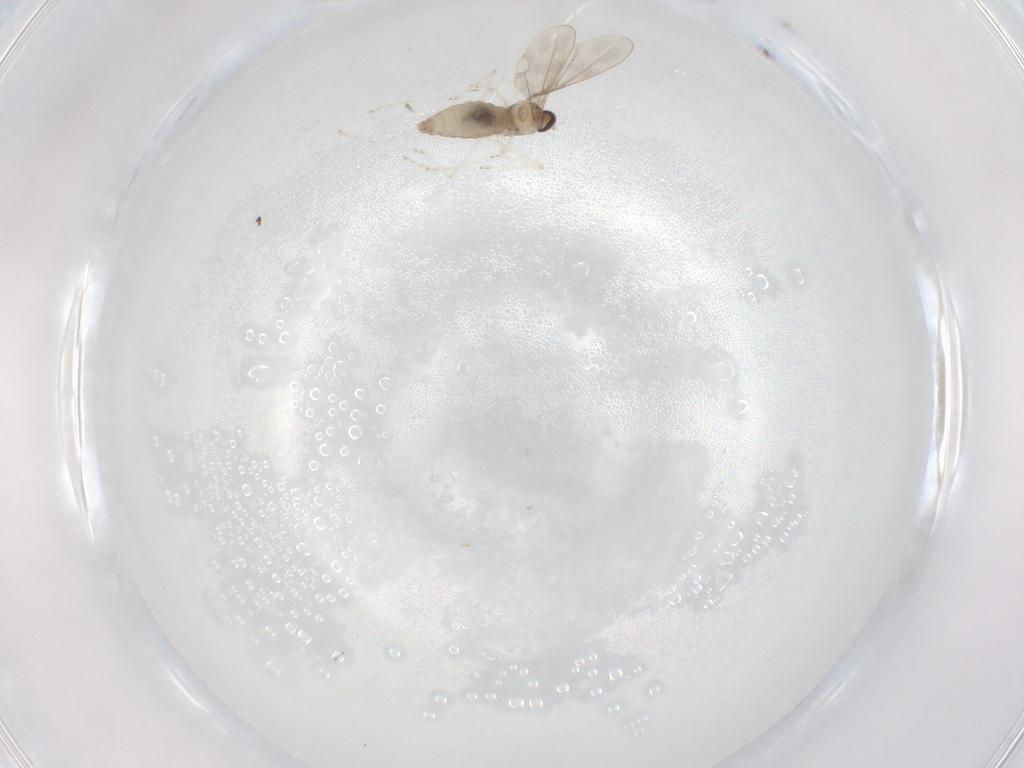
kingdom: Animalia
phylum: Arthropoda
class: Insecta
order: Diptera
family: Cecidomyiidae
